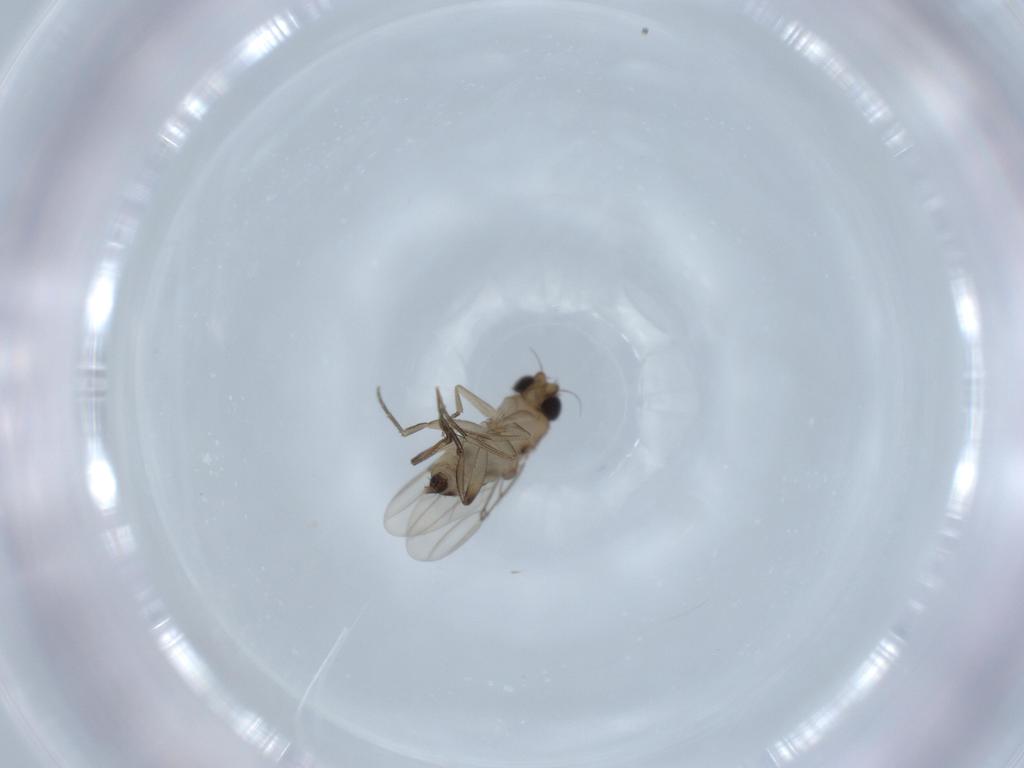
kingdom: Animalia
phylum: Arthropoda
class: Insecta
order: Diptera
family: Phoridae
